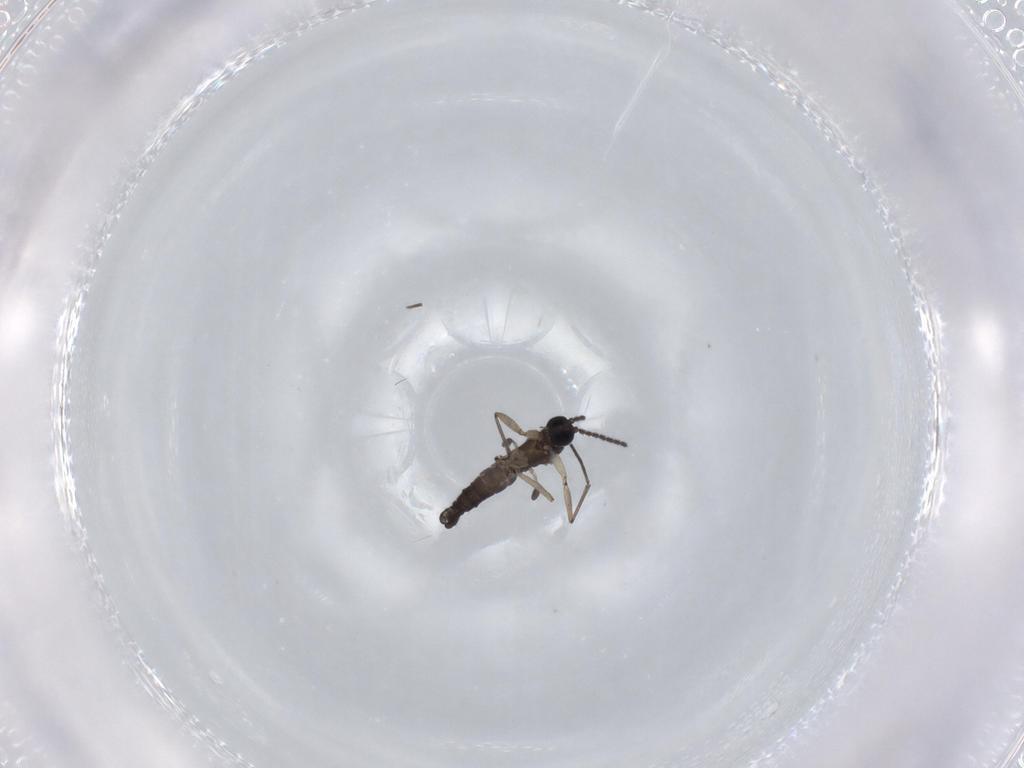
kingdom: Animalia
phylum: Arthropoda
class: Insecta
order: Diptera
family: Sciaridae
